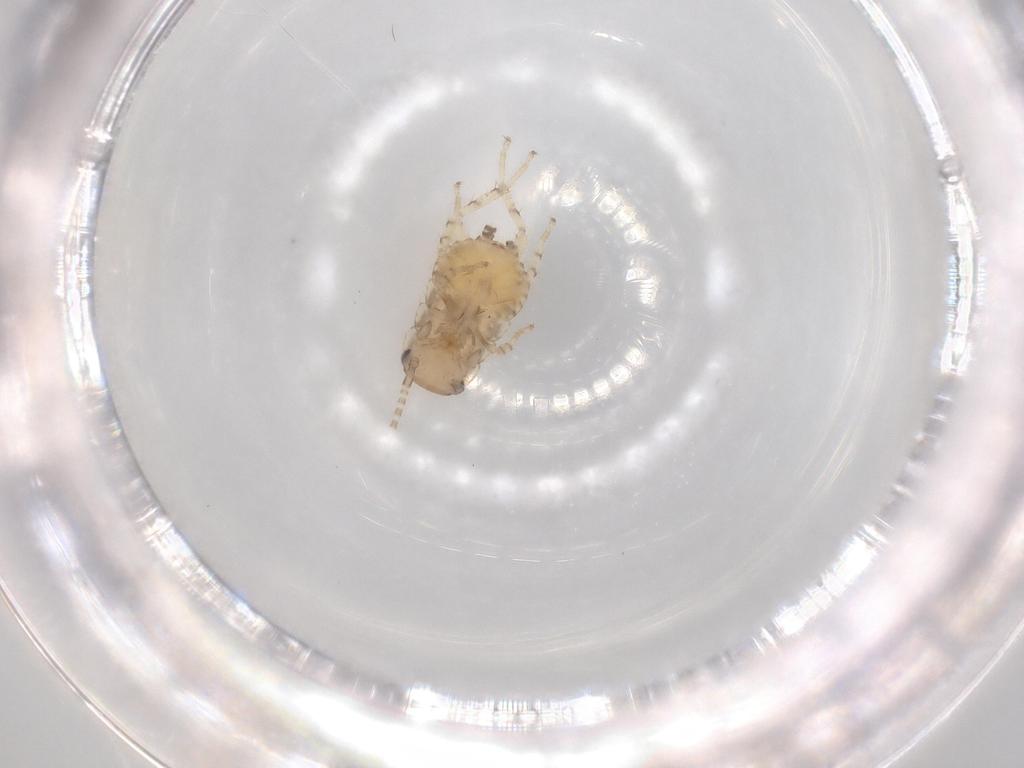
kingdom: Animalia
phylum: Arthropoda
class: Insecta
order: Blattodea
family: Ectobiidae
